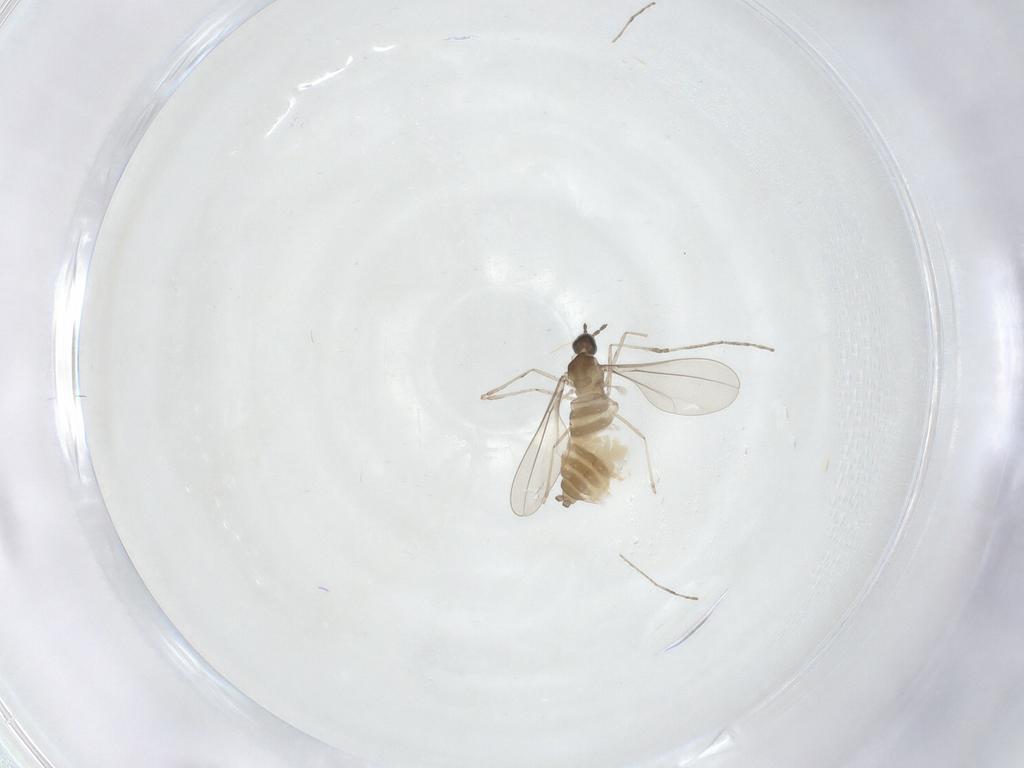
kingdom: Animalia
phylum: Arthropoda
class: Insecta
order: Diptera
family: Cecidomyiidae
